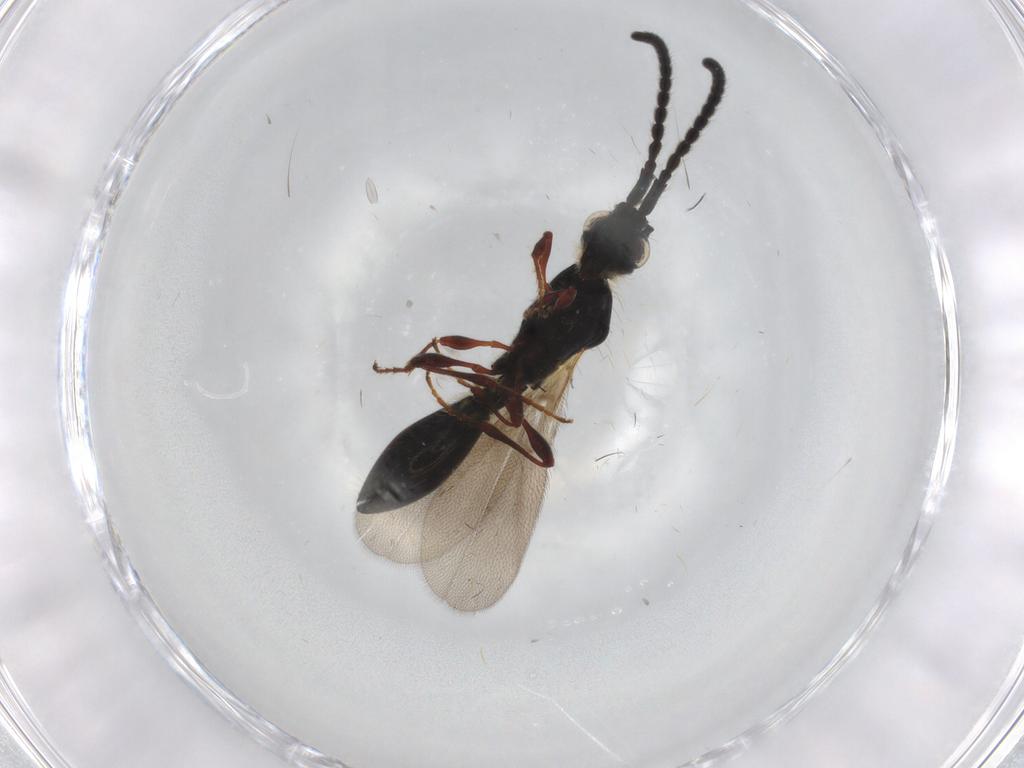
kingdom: Animalia
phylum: Arthropoda
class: Insecta
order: Hymenoptera
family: Diapriidae
